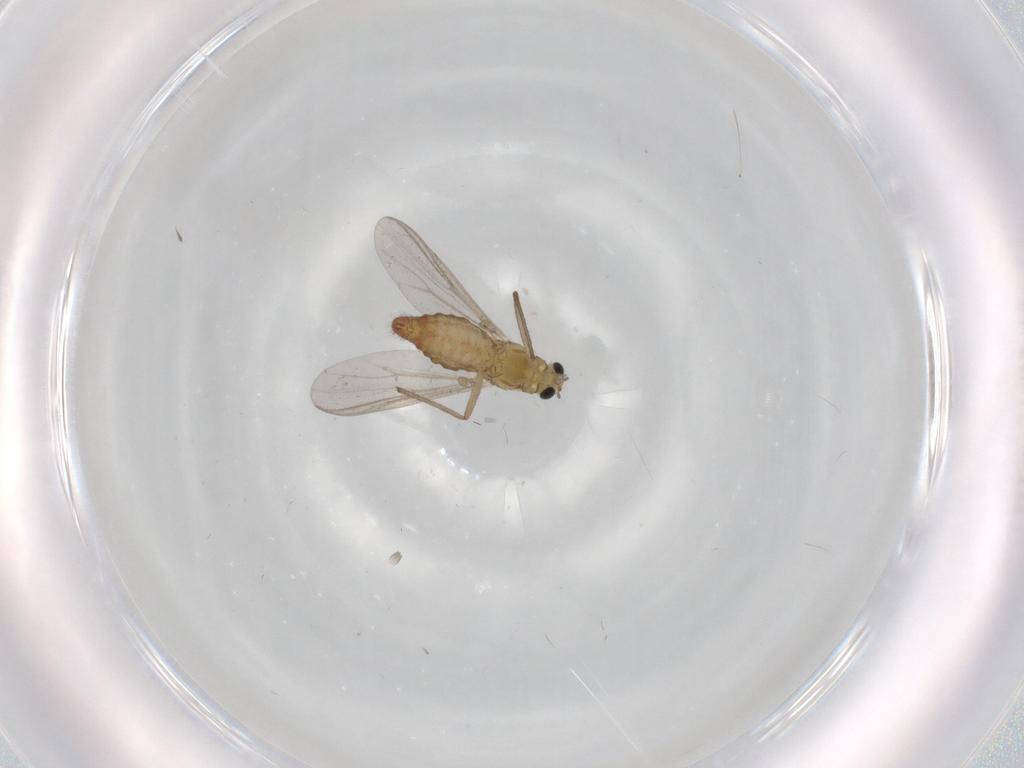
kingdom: Animalia
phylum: Arthropoda
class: Insecta
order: Diptera
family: Chironomidae
